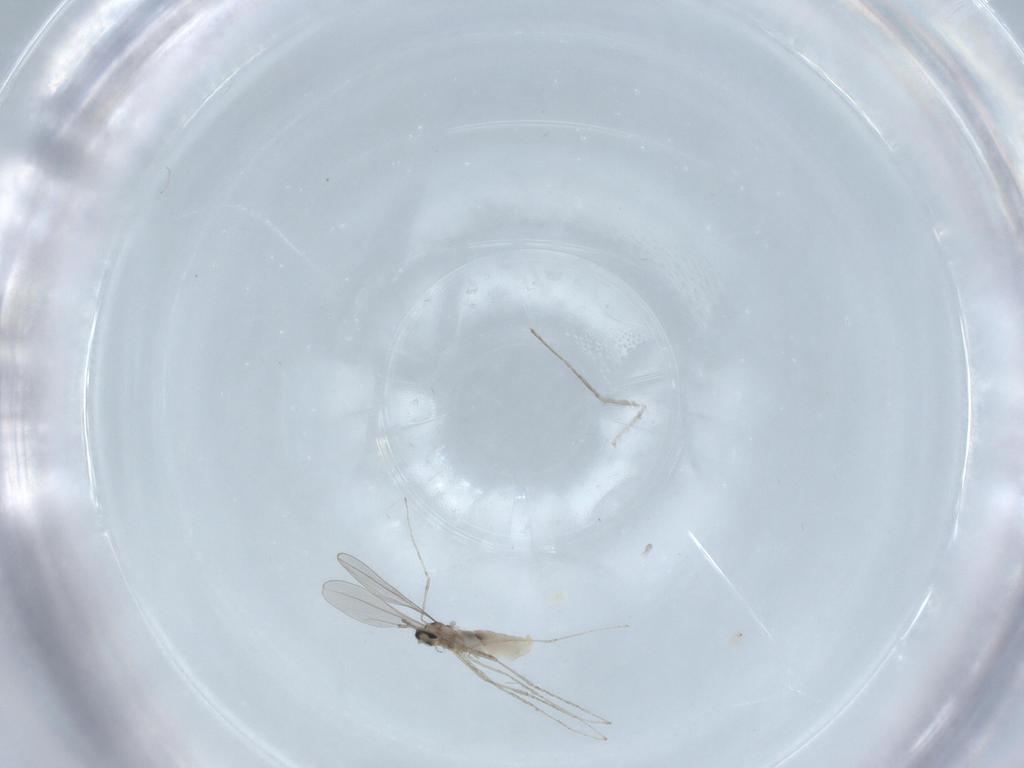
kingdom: Animalia
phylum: Arthropoda
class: Insecta
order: Diptera
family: Cecidomyiidae
